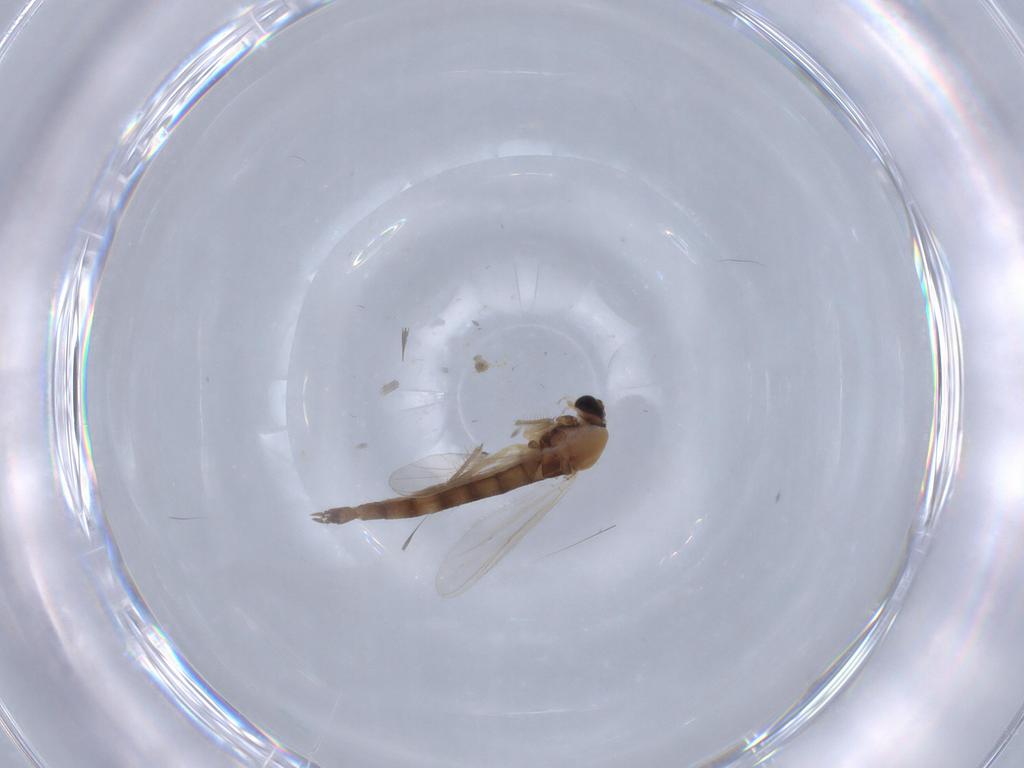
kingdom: Animalia
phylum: Arthropoda
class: Insecta
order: Diptera
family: Chironomidae
